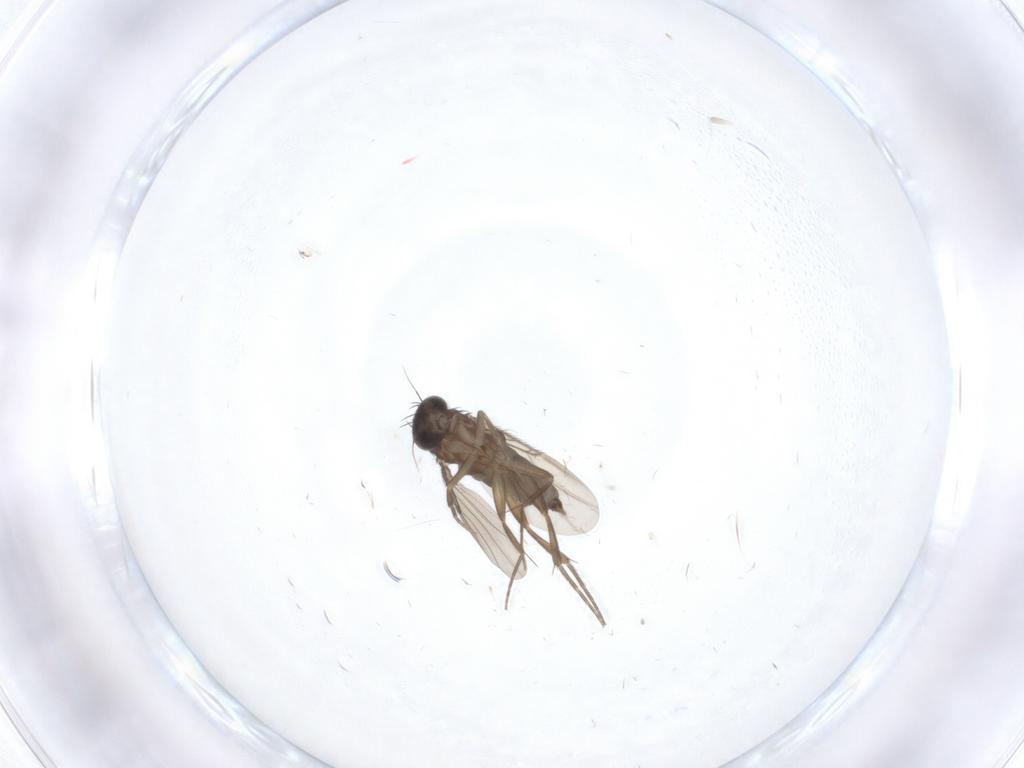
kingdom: Animalia
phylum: Arthropoda
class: Insecta
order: Diptera
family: Phoridae
